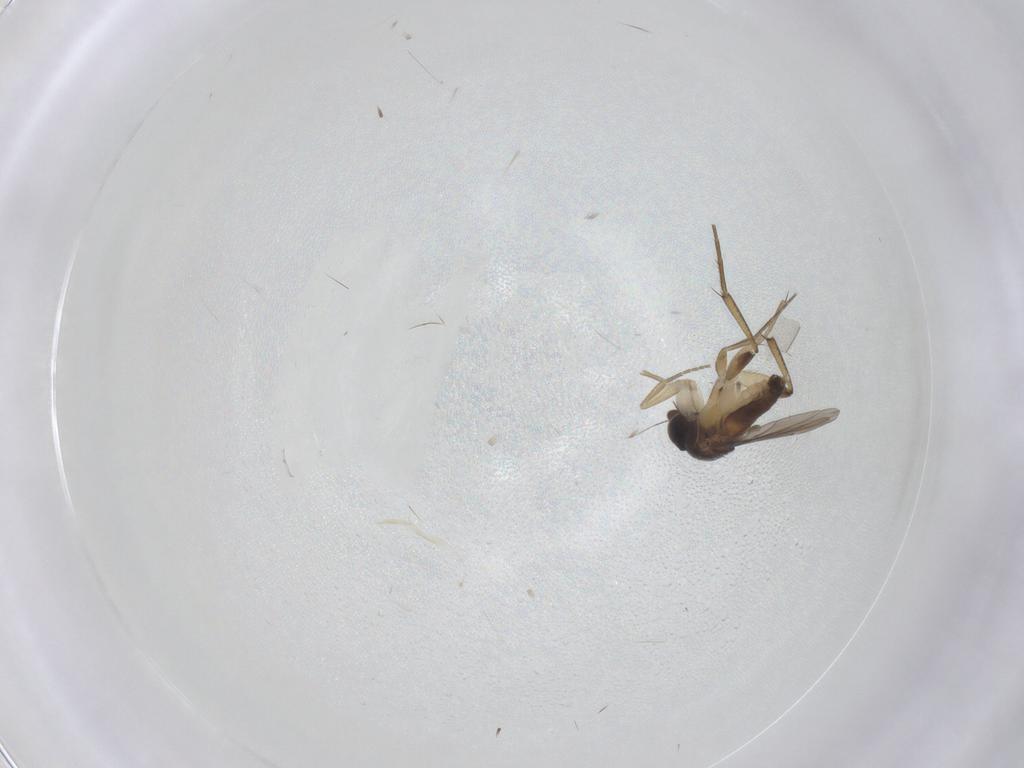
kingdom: Animalia
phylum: Arthropoda
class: Insecta
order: Diptera
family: Phoridae
